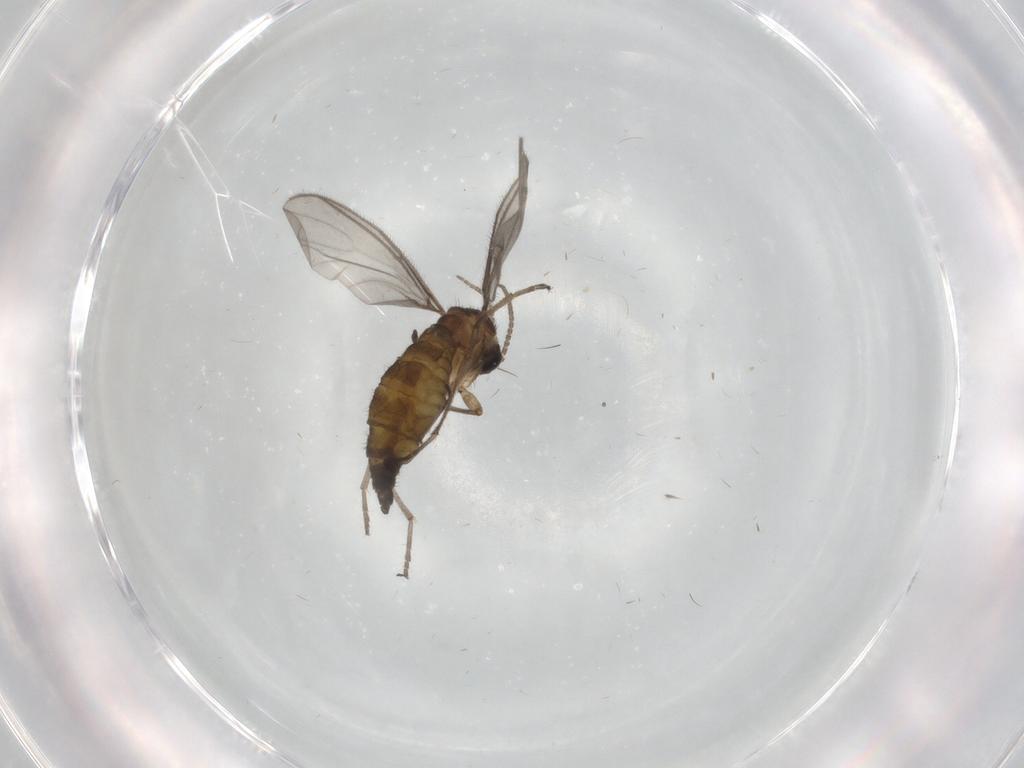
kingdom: Animalia
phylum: Arthropoda
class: Insecta
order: Diptera
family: Sciaridae
